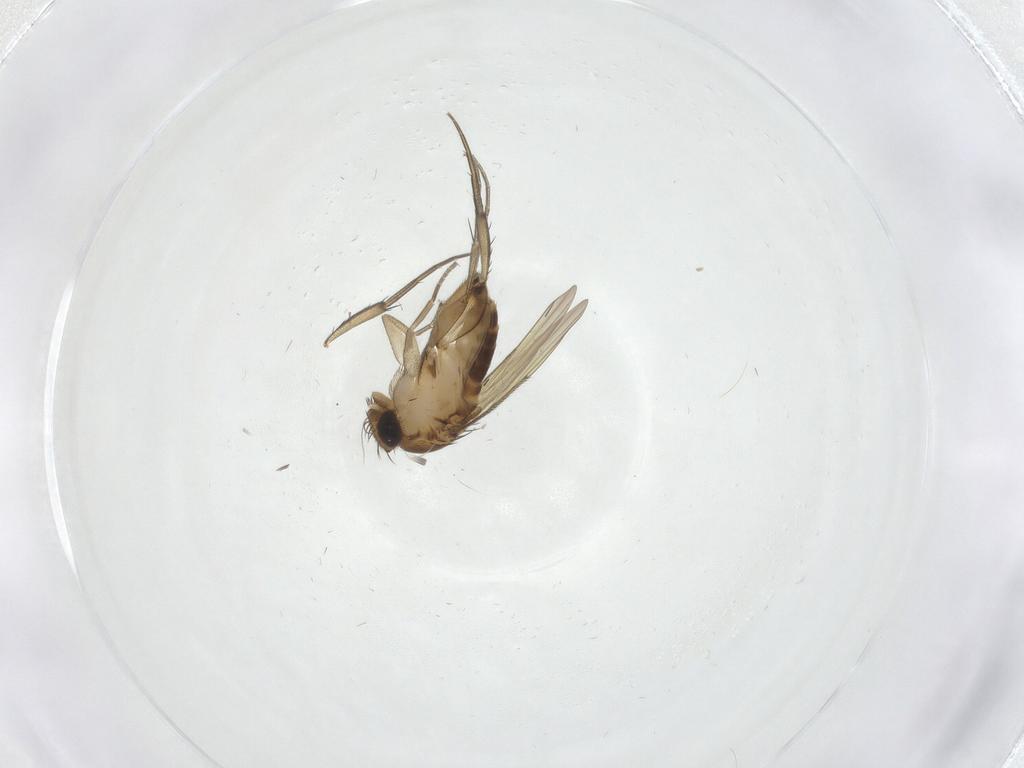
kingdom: Animalia
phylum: Arthropoda
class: Insecta
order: Diptera
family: Phoridae
